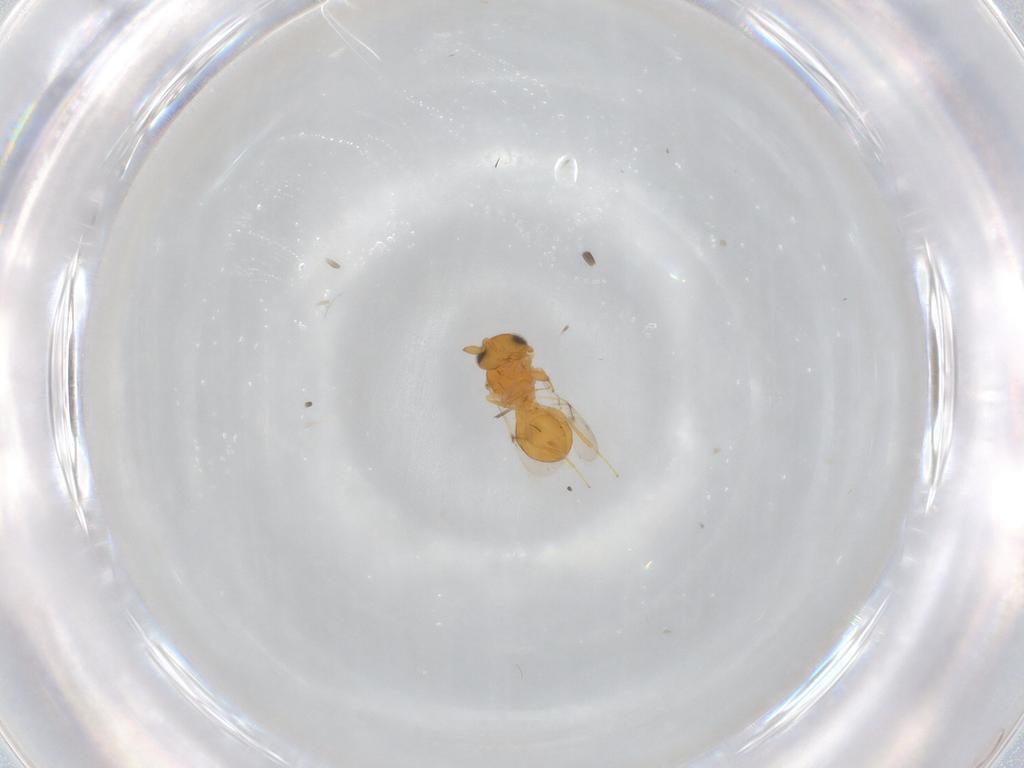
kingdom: Animalia
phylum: Arthropoda
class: Insecta
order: Hymenoptera
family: Scelionidae
